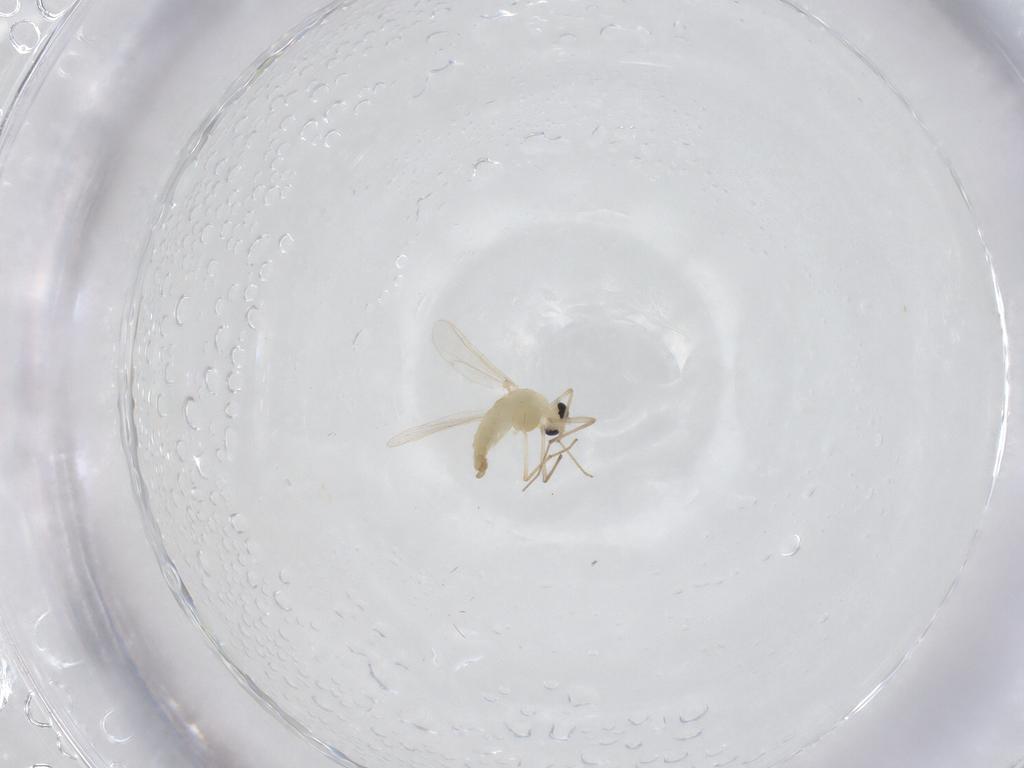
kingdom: Animalia
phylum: Arthropoda
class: Insecta
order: Diptera
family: Chironomidae
